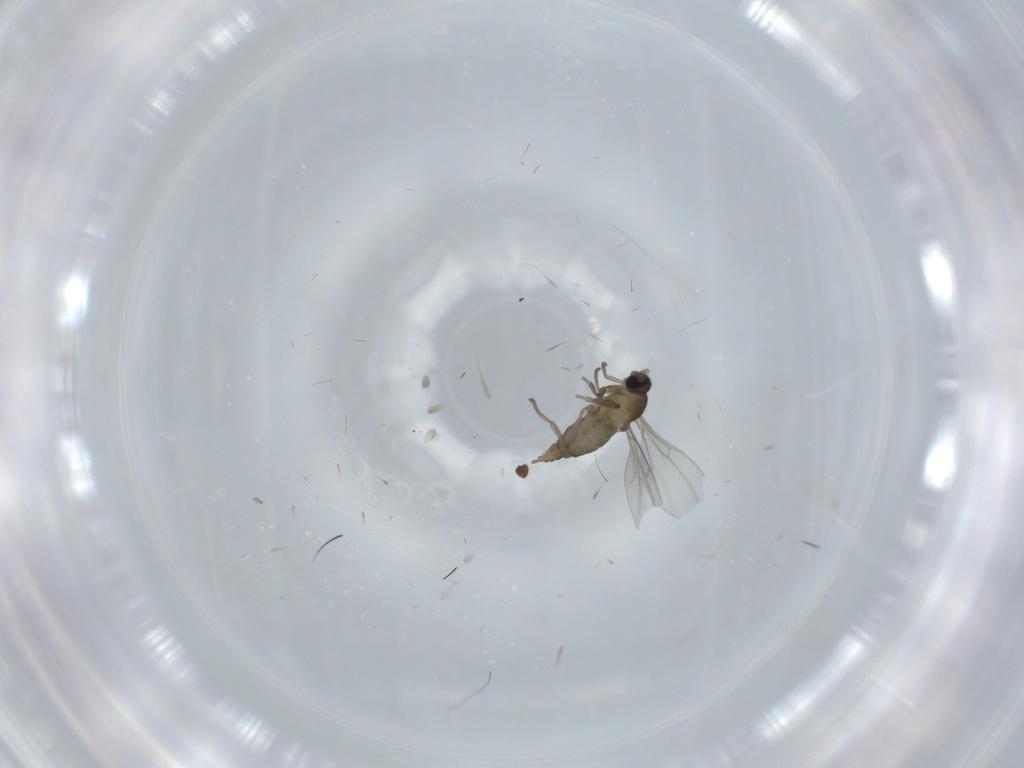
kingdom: Animalia
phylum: Arthropoda
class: Insecta
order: Diptera
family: Dolichopodidae
